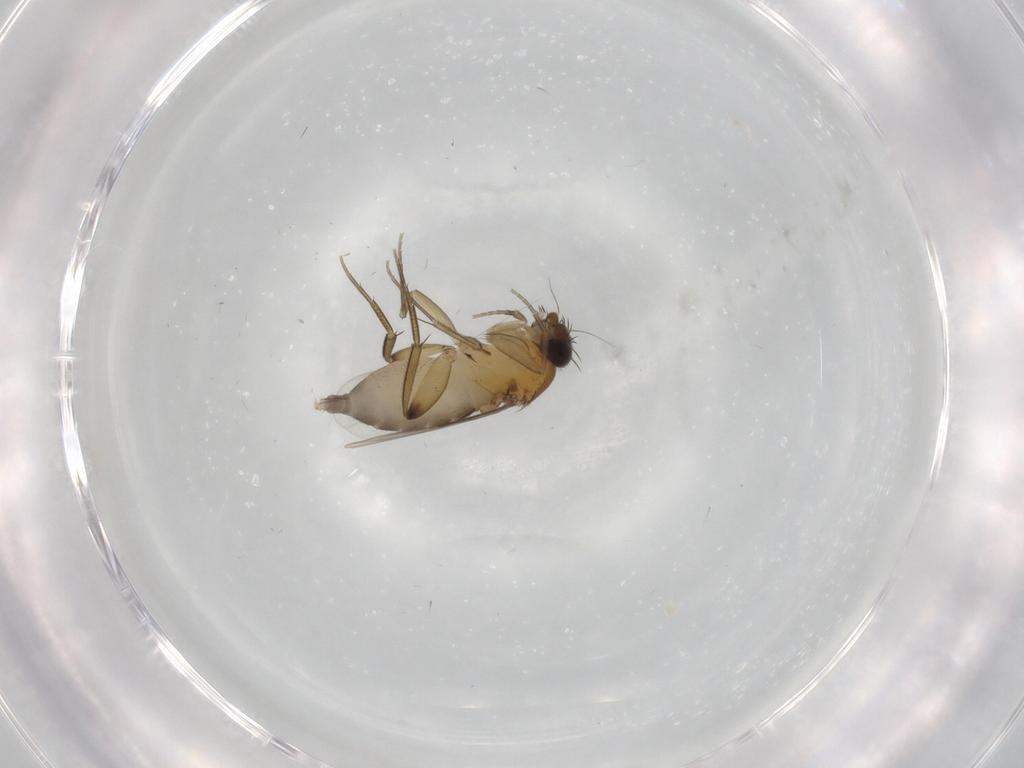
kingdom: Animalia
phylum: Arthropoda
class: Insecta
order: Diptera
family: Phoridae
